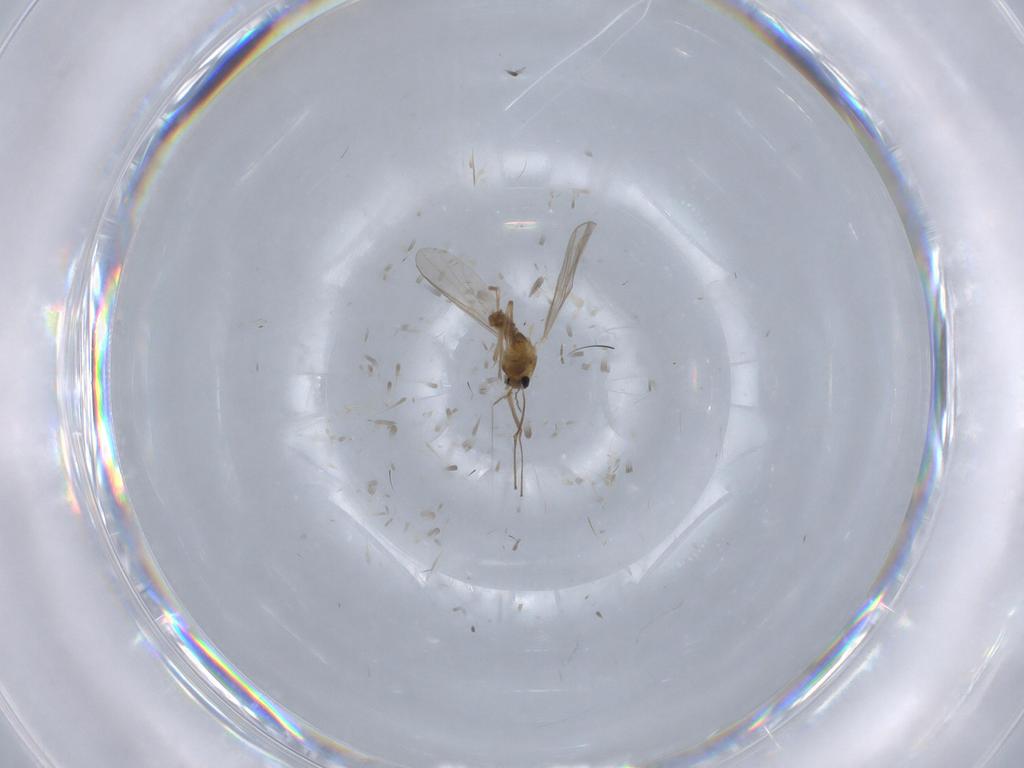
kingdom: Animalia
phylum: Arthropoda
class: Insecta
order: Diptera
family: Chironomidae
